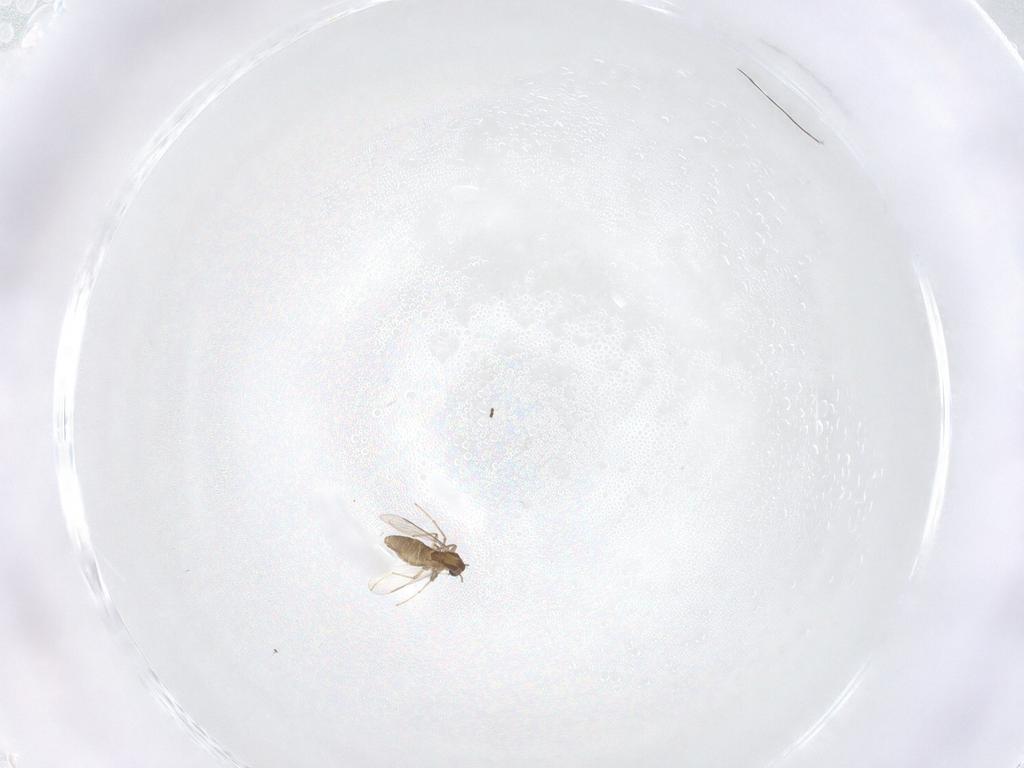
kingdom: Animalia
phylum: Arthropoda
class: Insecta
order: Diptera
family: Chironomidae
